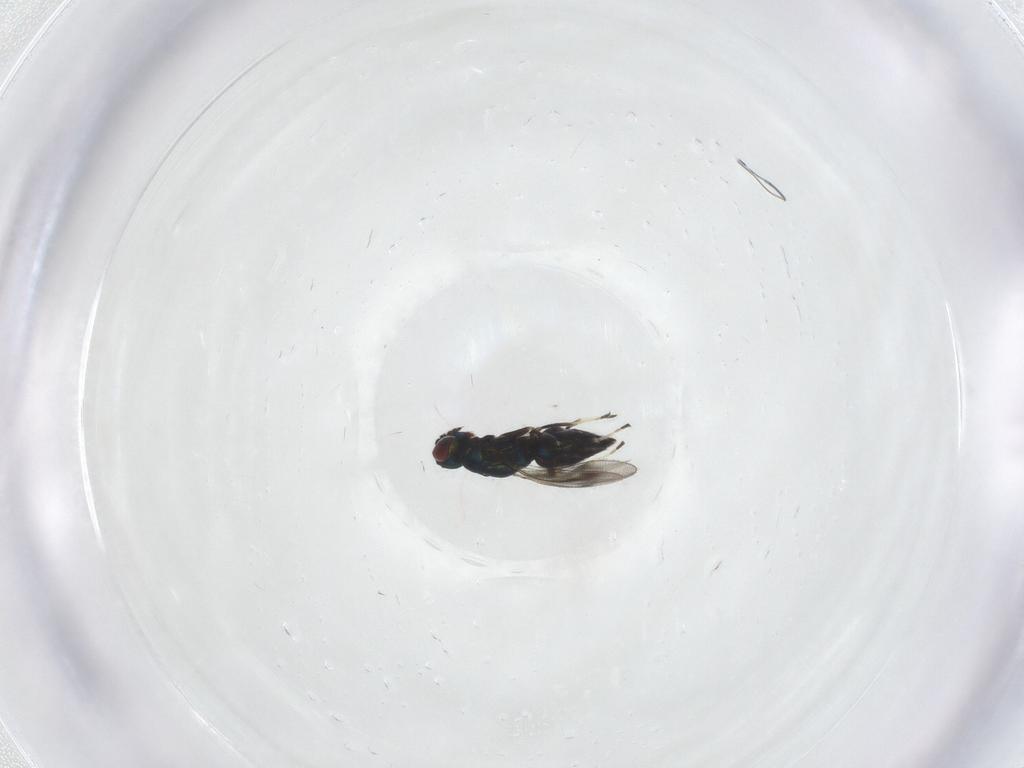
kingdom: Animalia
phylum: Arthropoda
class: Insecta
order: Hymenoptera
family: Eulophidae
